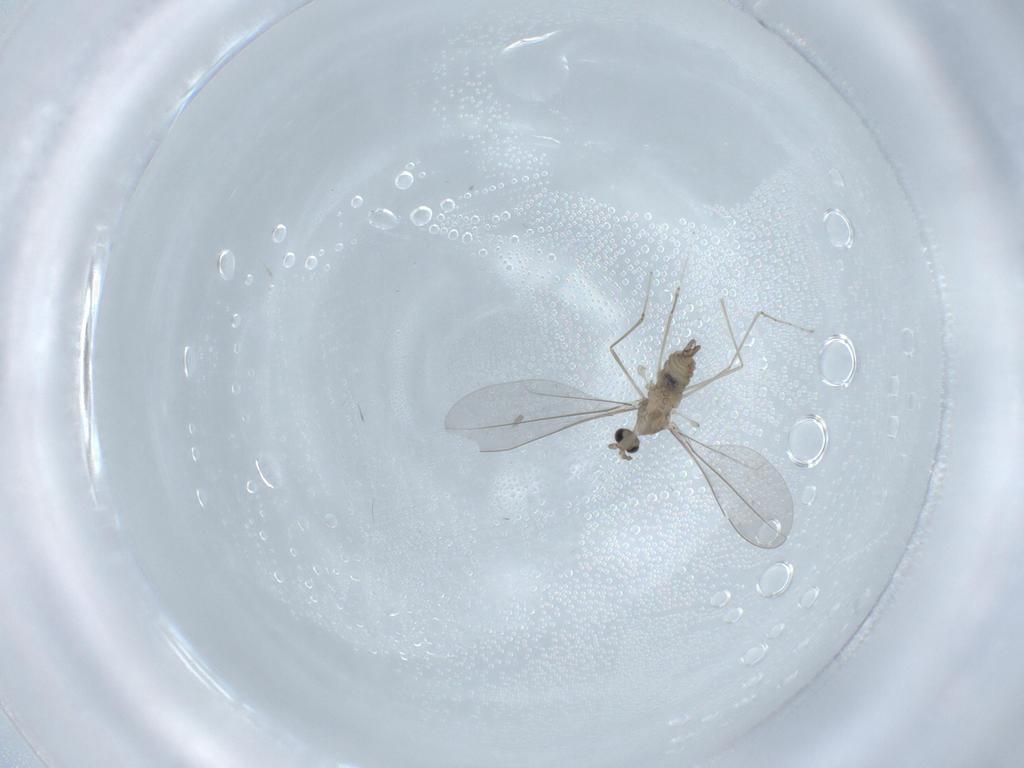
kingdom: Animalia
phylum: Arthropoda
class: Insecta
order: Diptera
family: Cecidomyiidae
